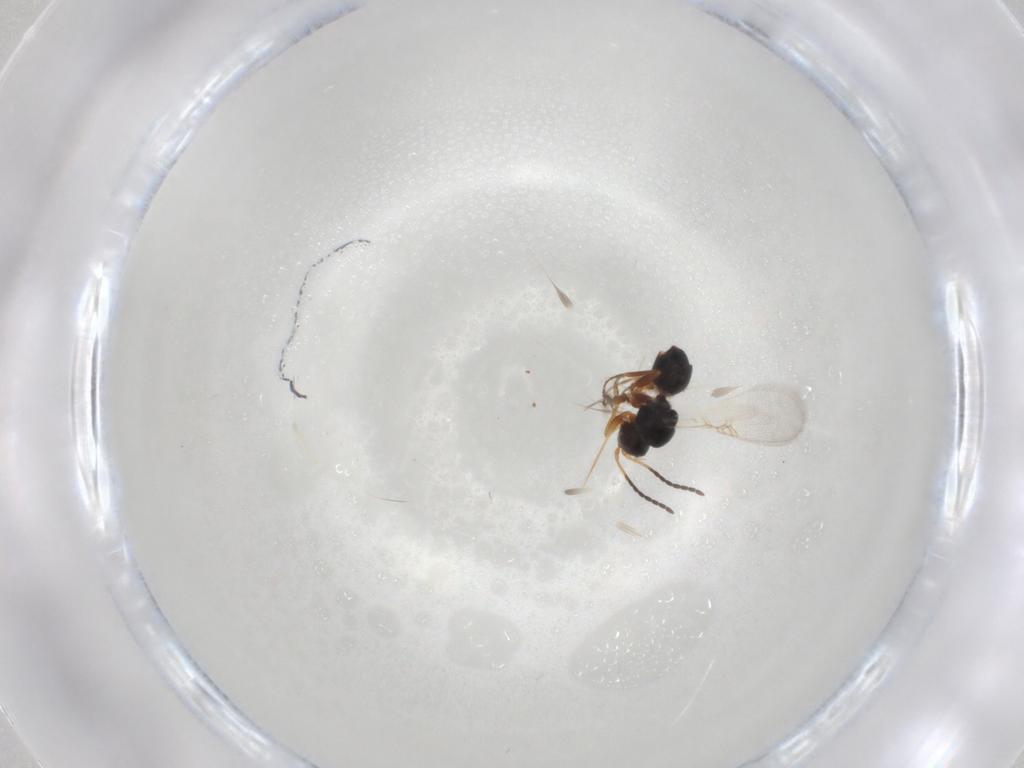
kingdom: Animalia
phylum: Arthropoda
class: Insecta
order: Hymenoptera
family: Figitidae
